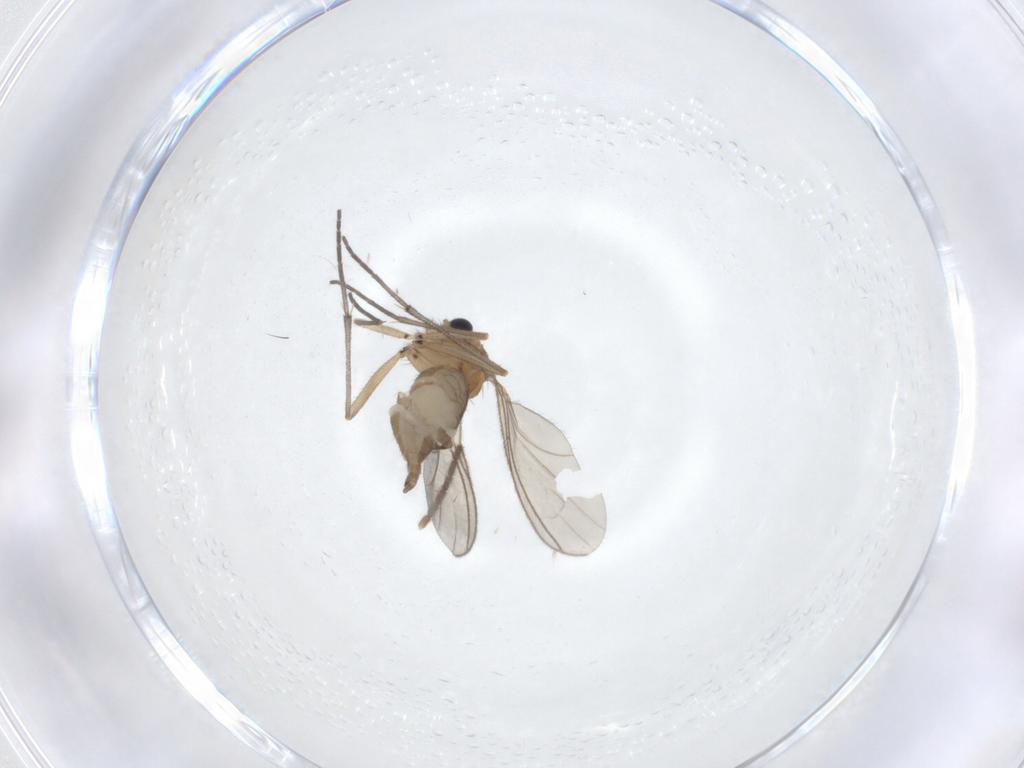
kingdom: Animalia
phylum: Arthropoda
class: Insecta
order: Diptera
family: Sciaridae
